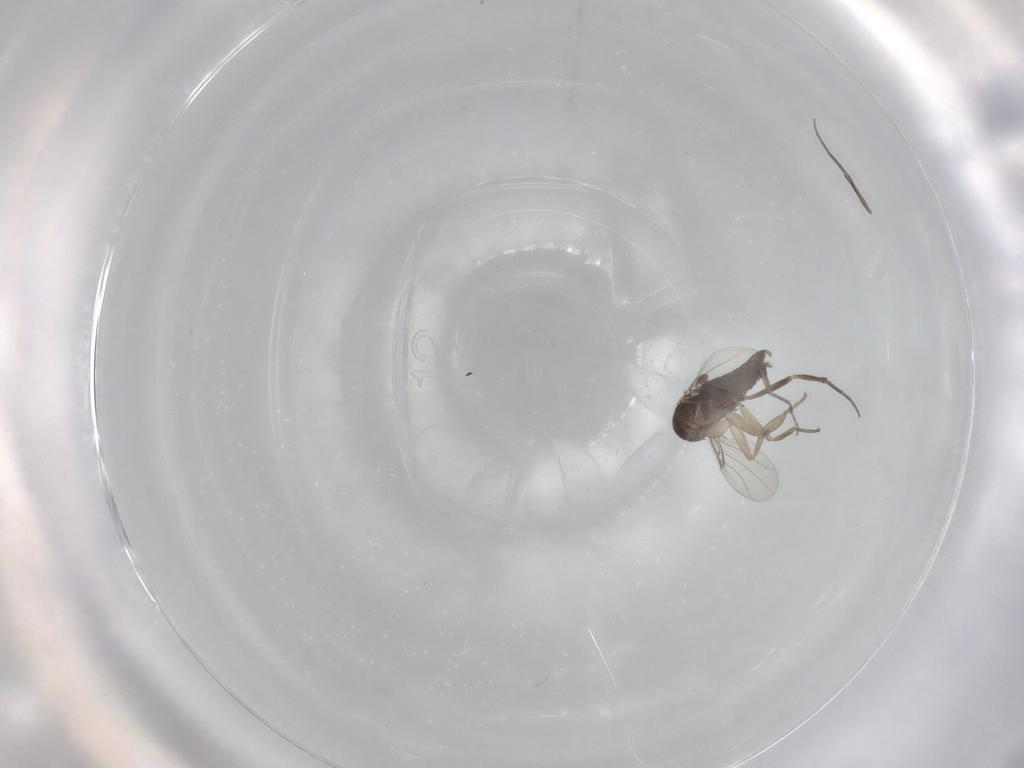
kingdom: Animalia
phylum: Arthropoda
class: Insecta
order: Diptera
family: Phoridae
